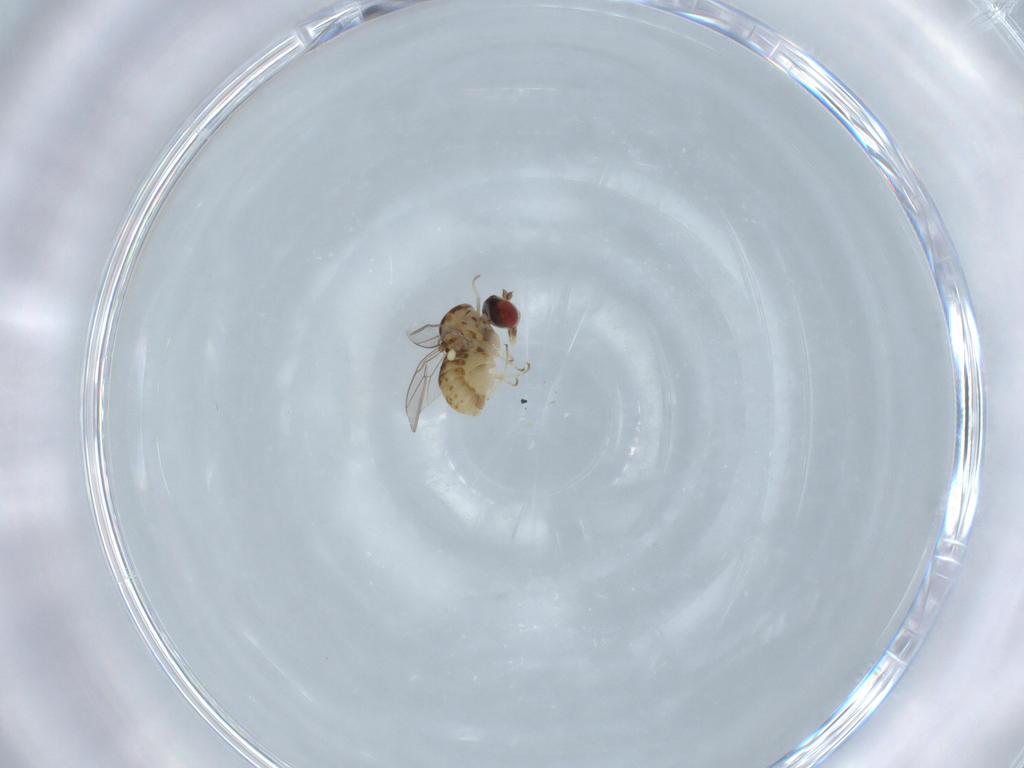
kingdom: Animalia
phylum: Arthropoda
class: Insecta
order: Diptera
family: Bombyliidae
